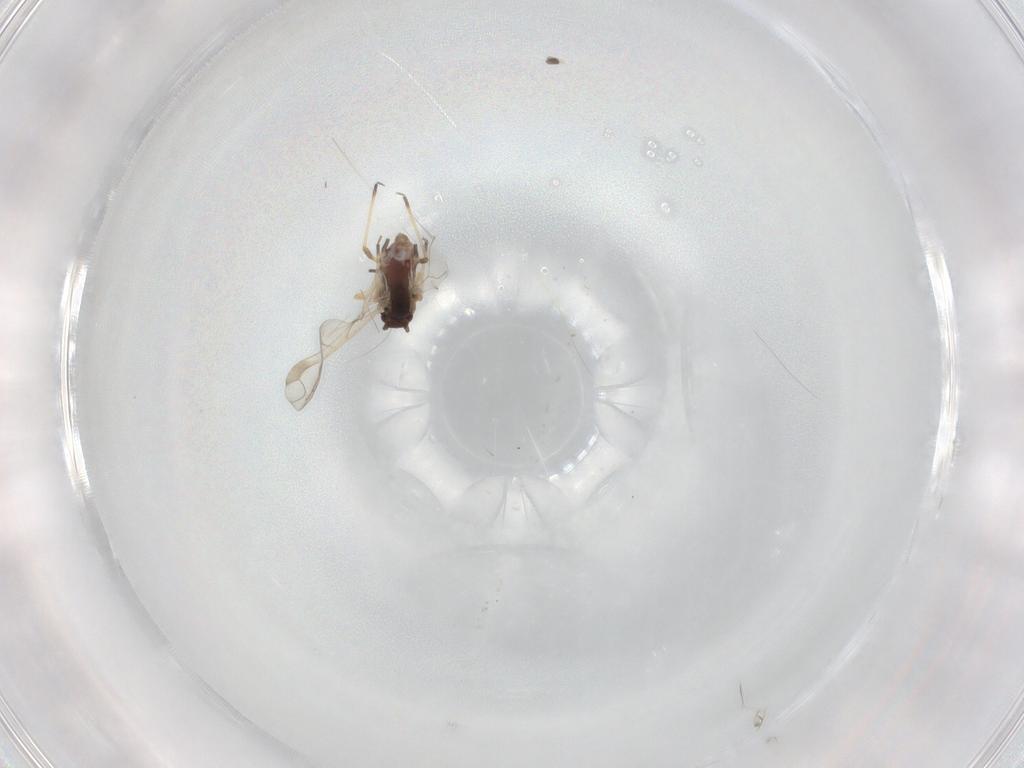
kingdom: Animalia
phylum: Arthropoda
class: Insecta
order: Hemiptera
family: Aphididae
